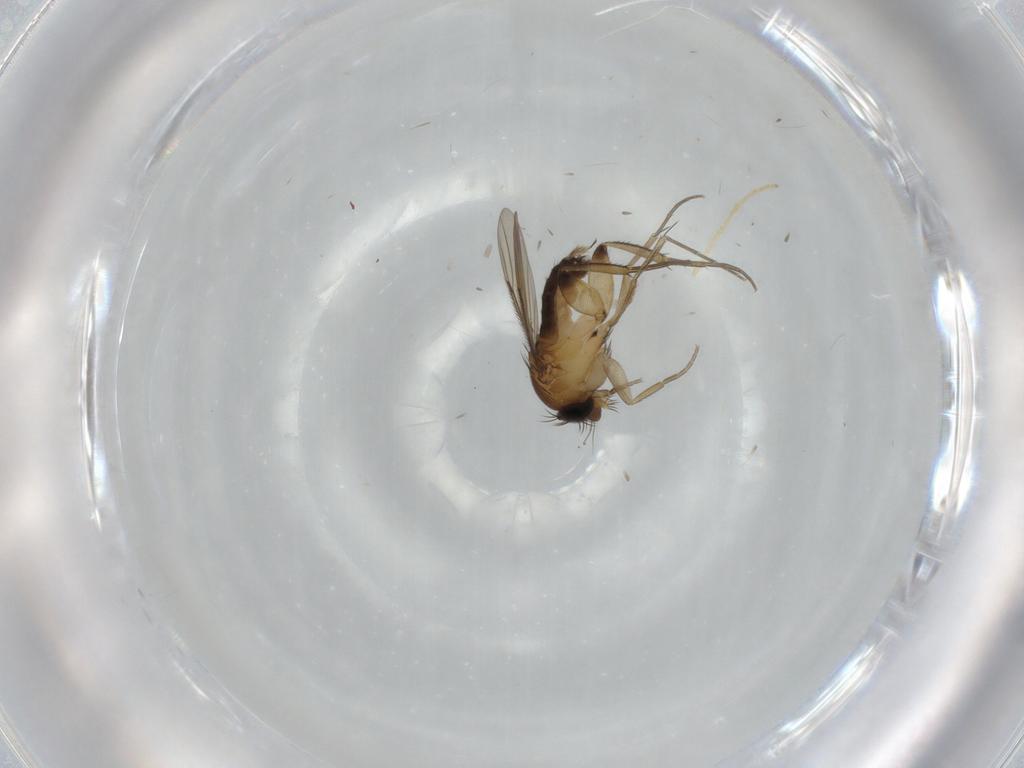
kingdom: Animalia
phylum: Arthropoda
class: Insecta
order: Diptera
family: Phoridae
